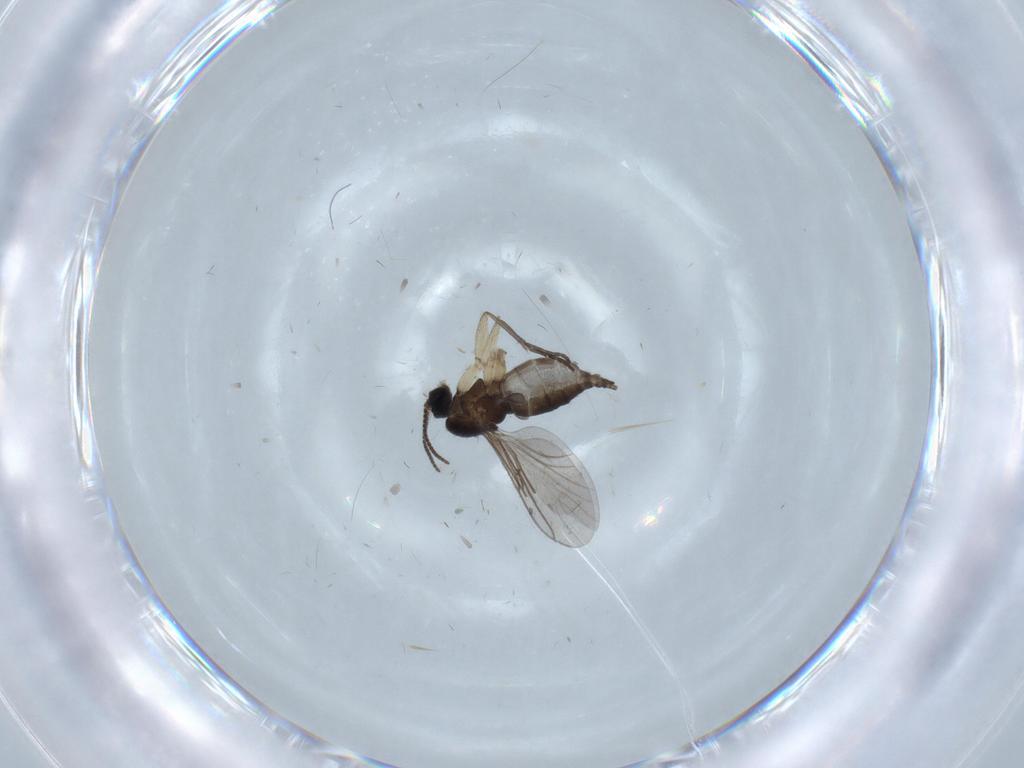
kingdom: Animalia
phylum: Arthropoda
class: Insecta
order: Diptera
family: Sciaridae
